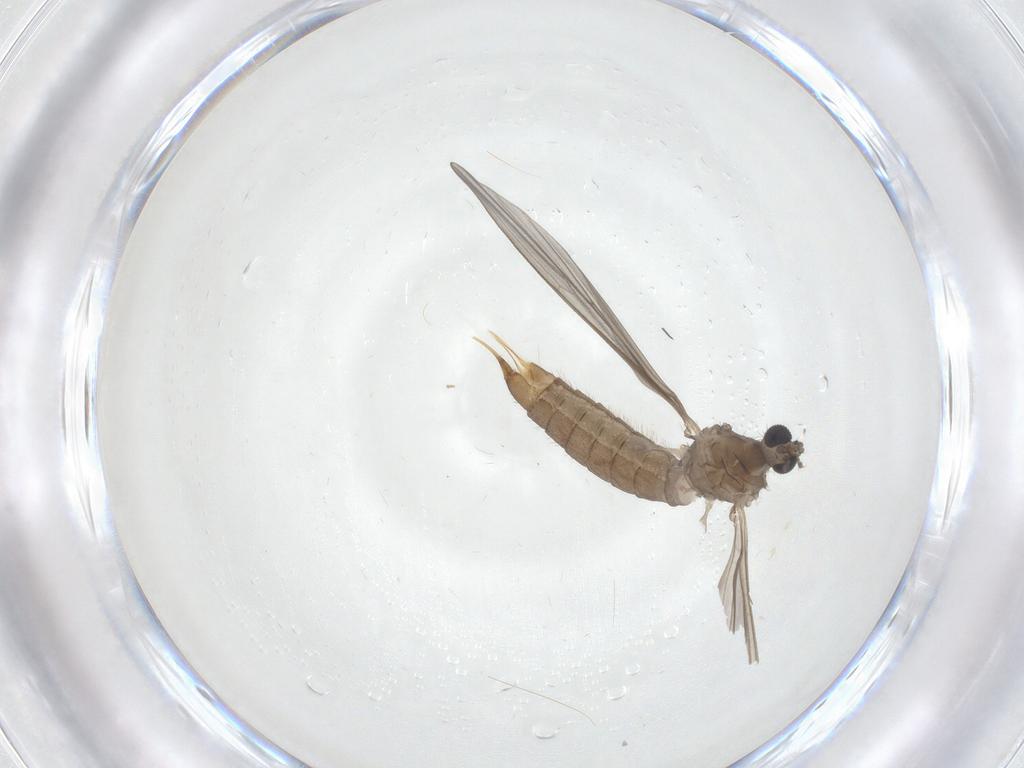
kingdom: Animalia
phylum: Arthropoda
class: Insecta
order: Diptera
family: Limoniidae
